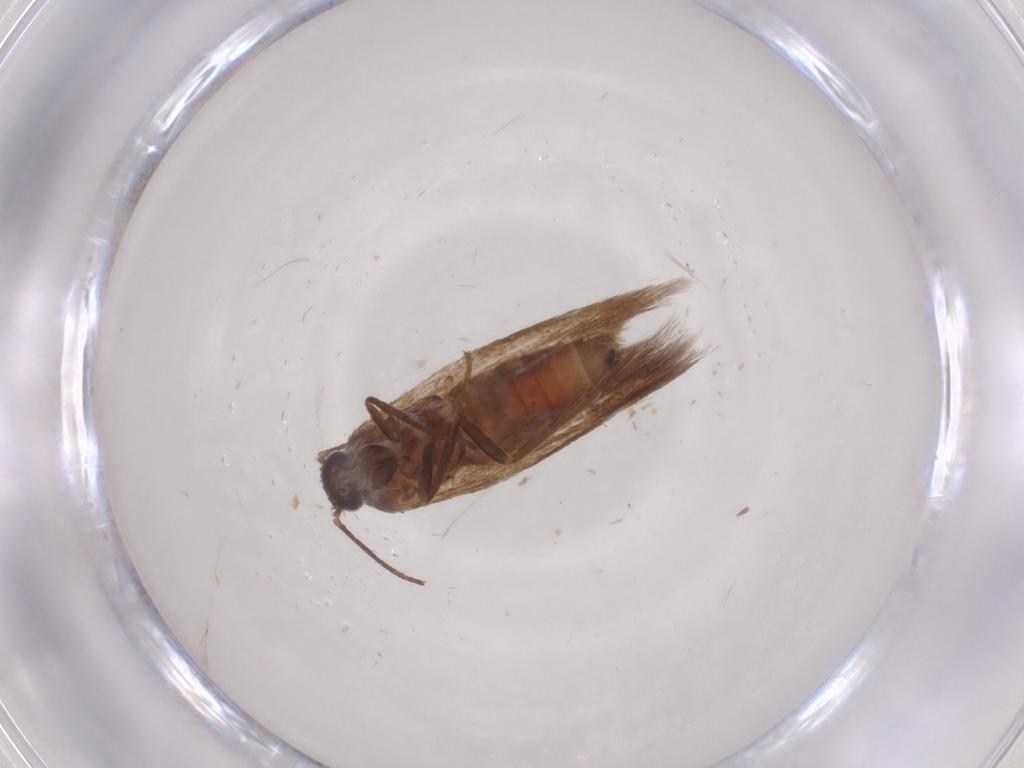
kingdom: Animalia
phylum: Arthropoda
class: Insecta
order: Lepidoptera
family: Scythrididae
